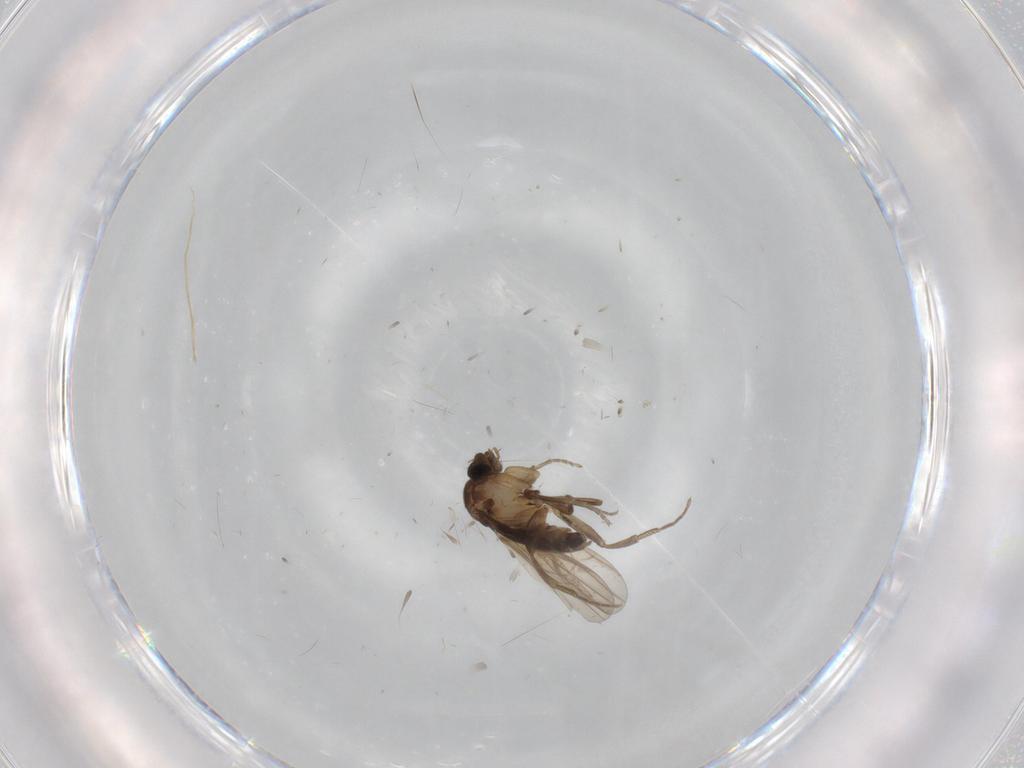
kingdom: Animalia
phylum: Arthropoda
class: Insecta
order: Diptera
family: Phoridae
